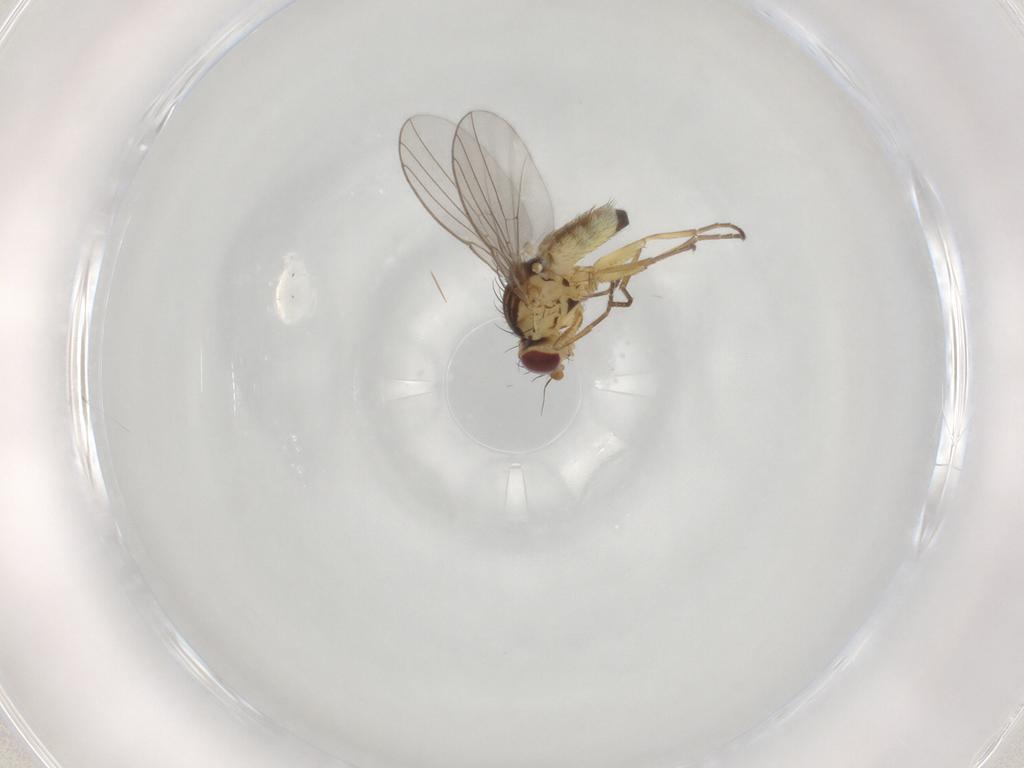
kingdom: Animalia
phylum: Arthropoda
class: Insecta
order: Diptera
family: Agromyzidae
